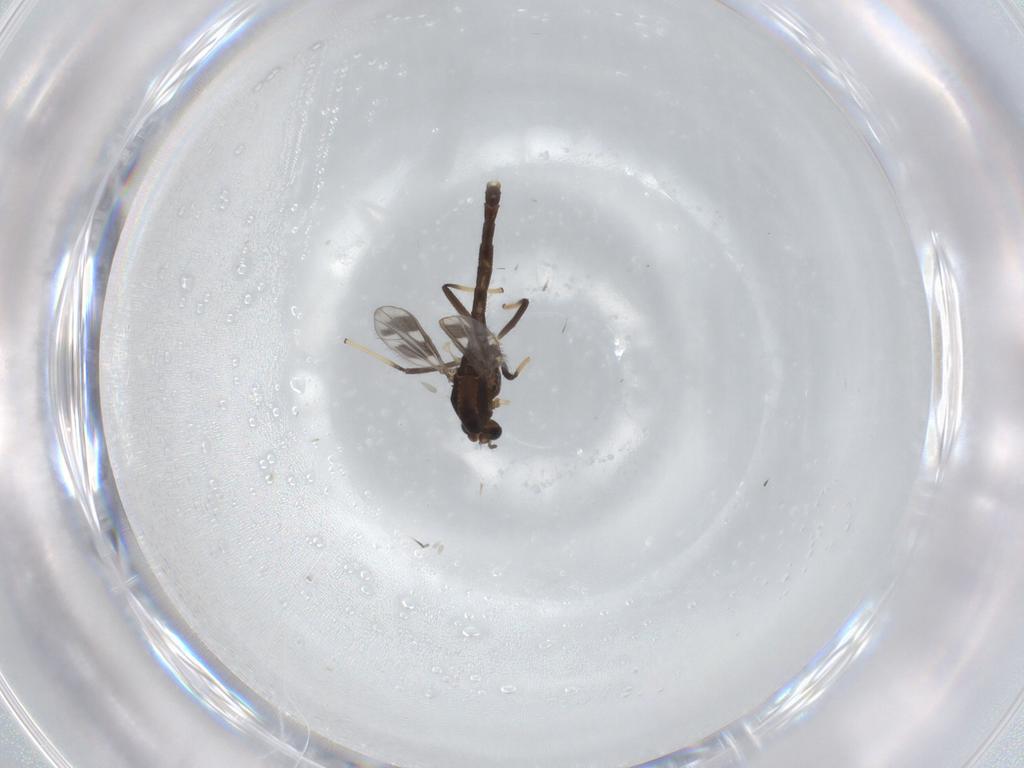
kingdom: Animalia
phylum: Arthropoda
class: Insecta
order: Diptera
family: Chironomidae
